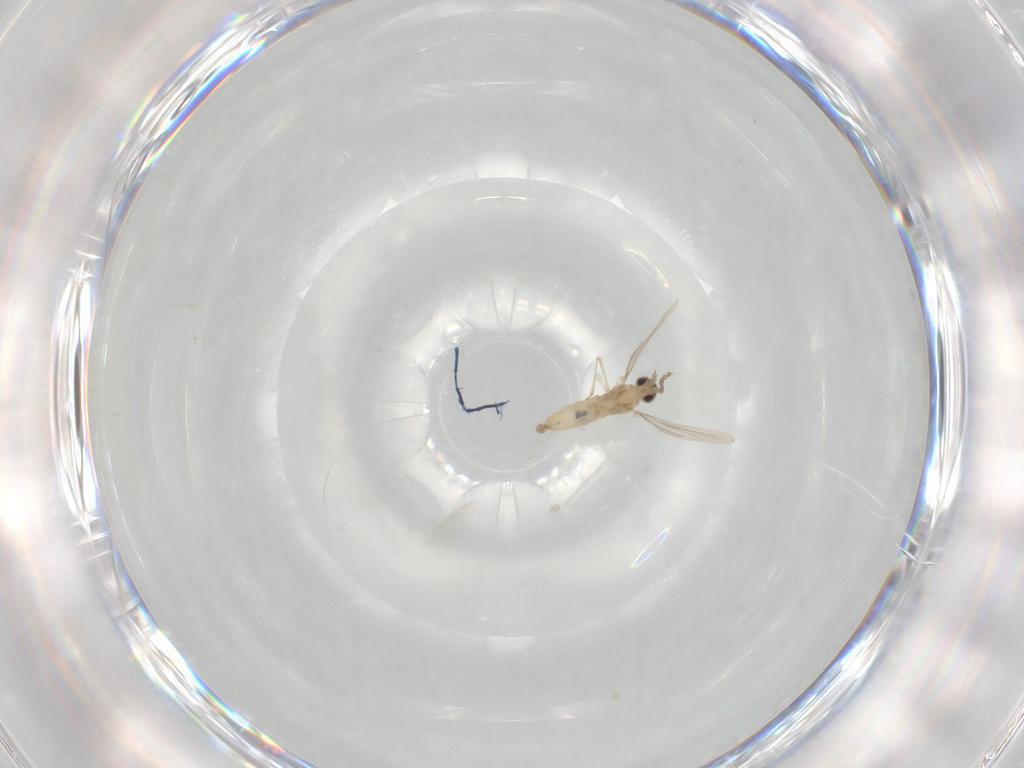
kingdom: Animalia
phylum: Arthropoda
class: Insecta
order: Diptera
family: Cecidomyiidae
